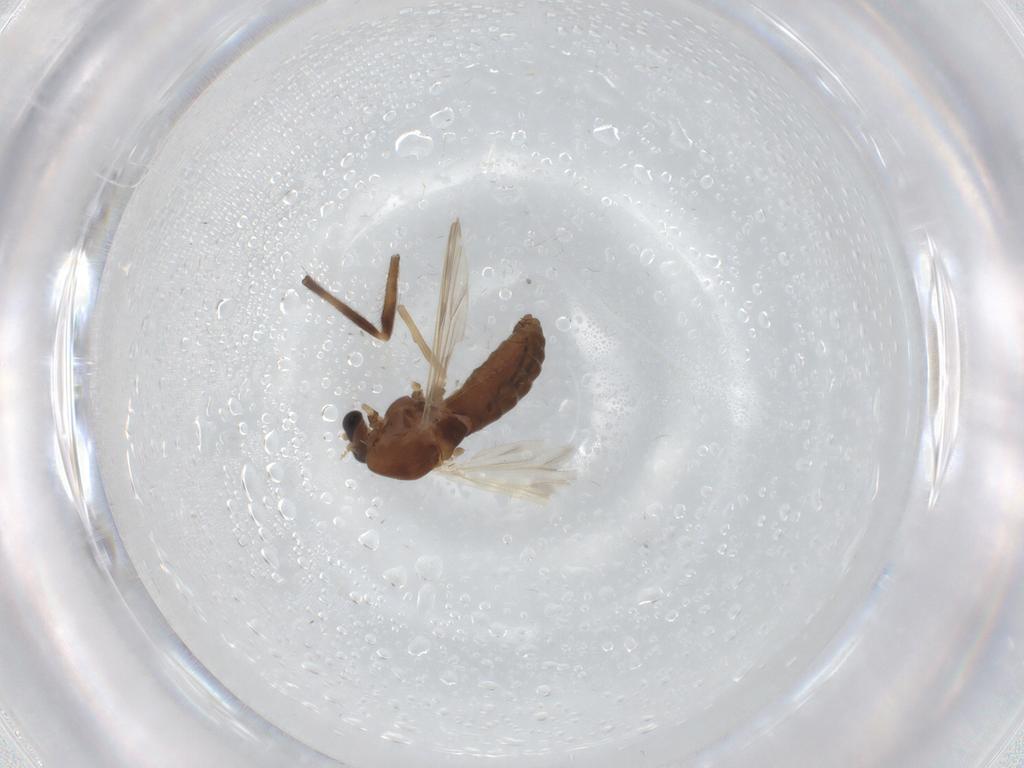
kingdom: Animalia
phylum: Arthropoda
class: Insecta
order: Diptera
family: Chironomidae
